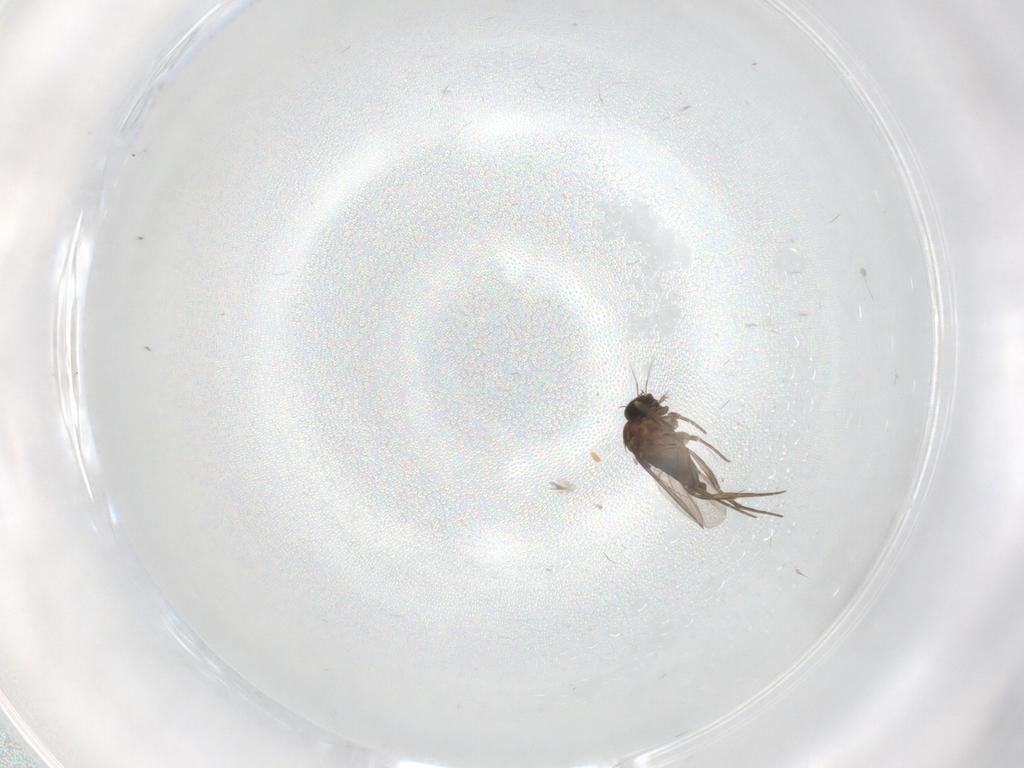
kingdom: Animalia
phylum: Arthropoda
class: Insecta
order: Diptera
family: Phoridae
